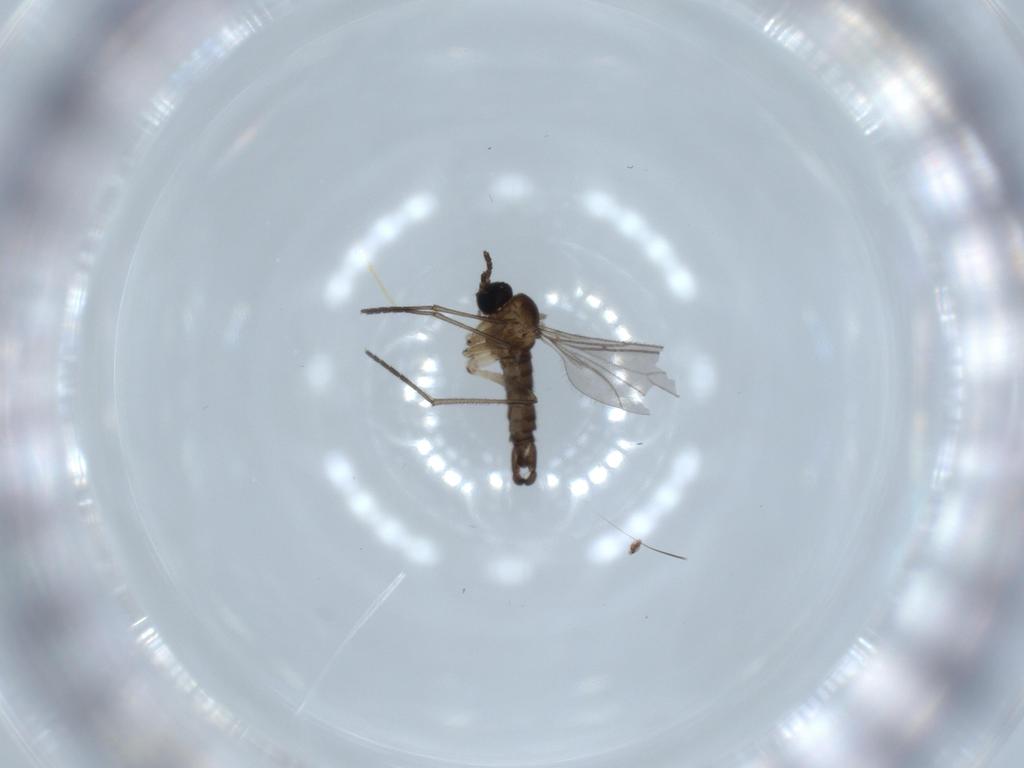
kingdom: Animalia
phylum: Arthropoda
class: Insecta
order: Diptera
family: Sciaridae
